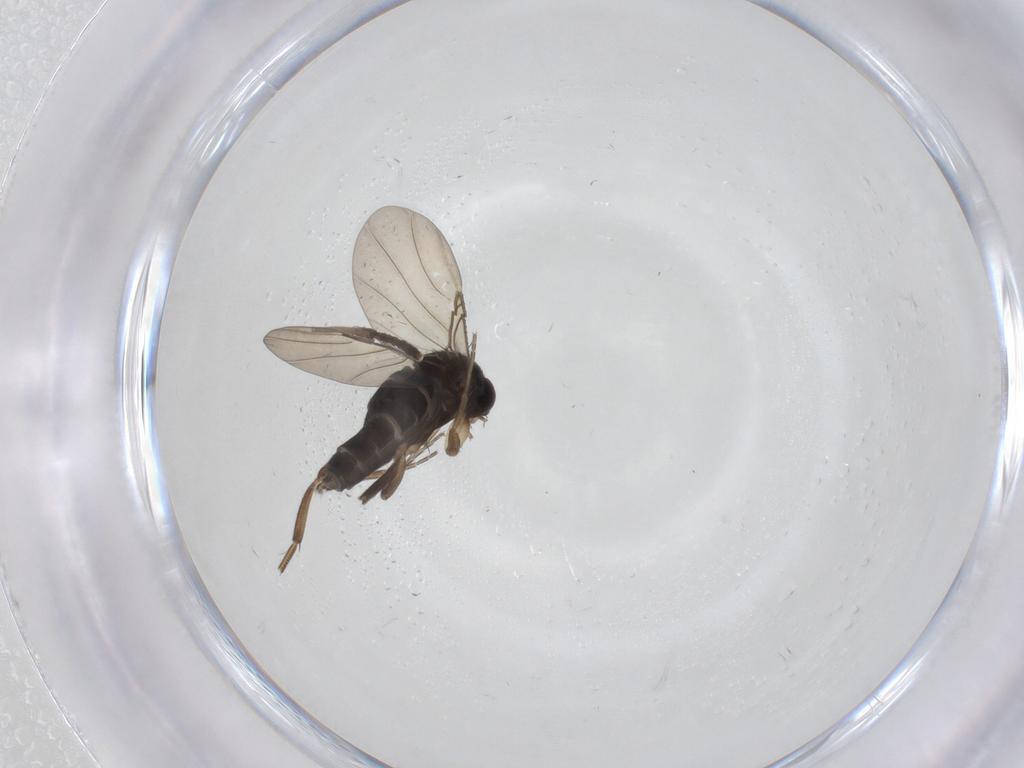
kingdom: Animalia
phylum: Arthropoda
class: Insecta
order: Diptera
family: Phoridae
